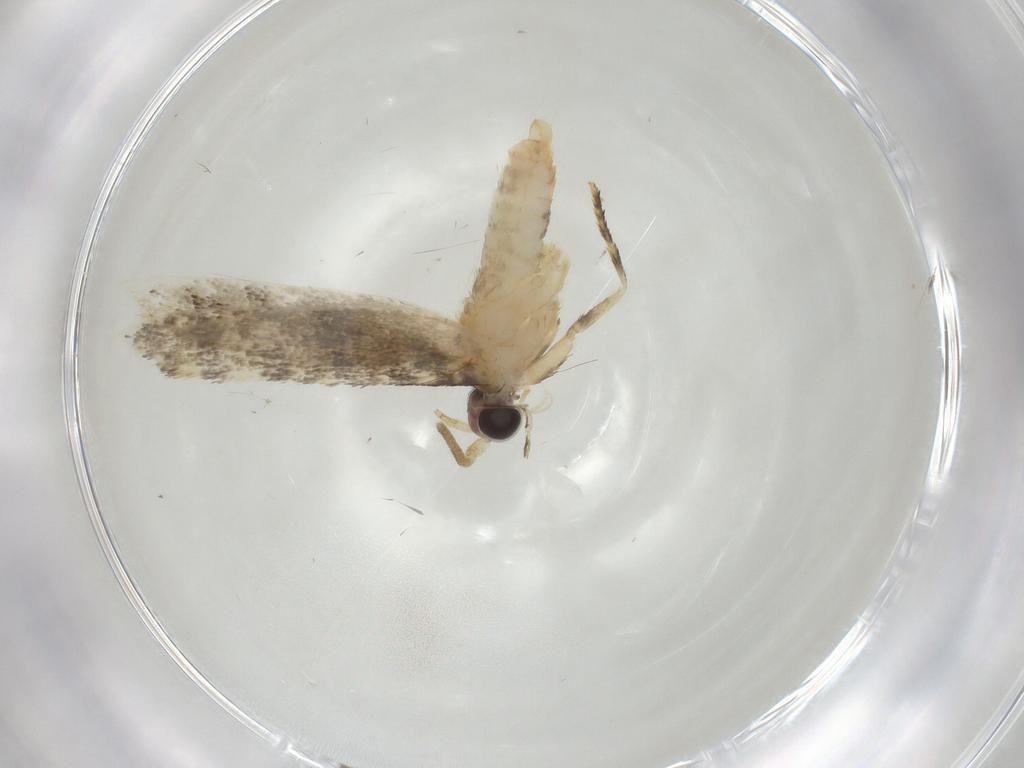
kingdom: Animalia
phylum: Arthropoda
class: Insecta
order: Lepidoptera
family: Tineidae
